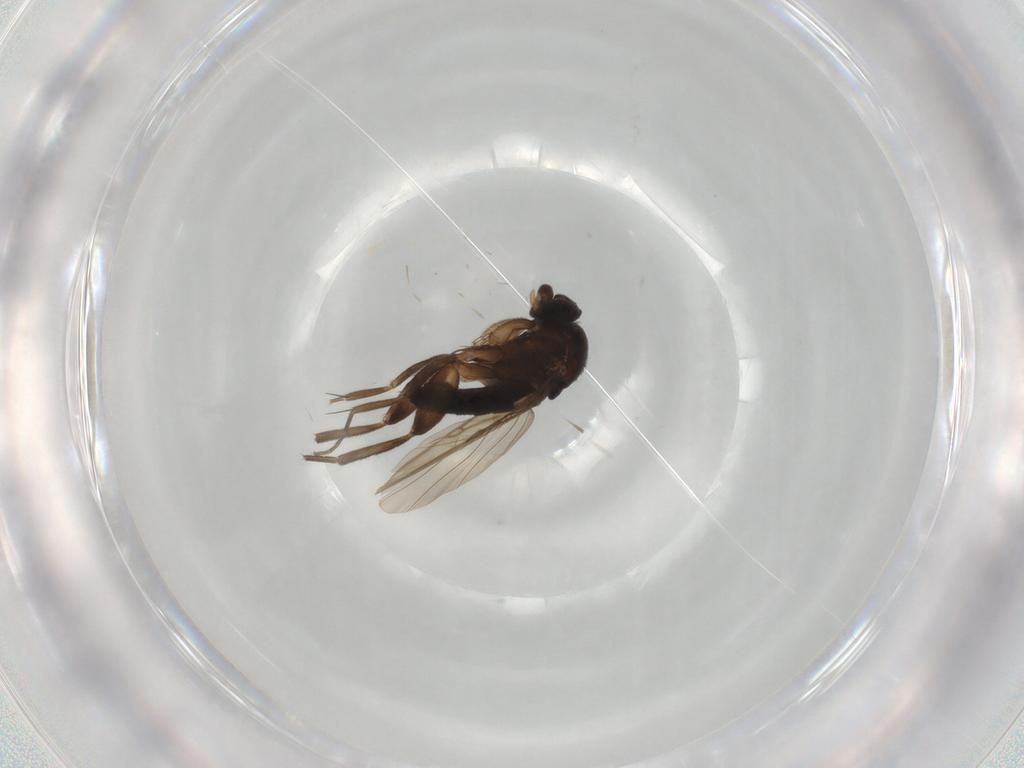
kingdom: Animalia
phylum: Arthropoda
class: Insecta
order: Diptera
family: Phoridae
